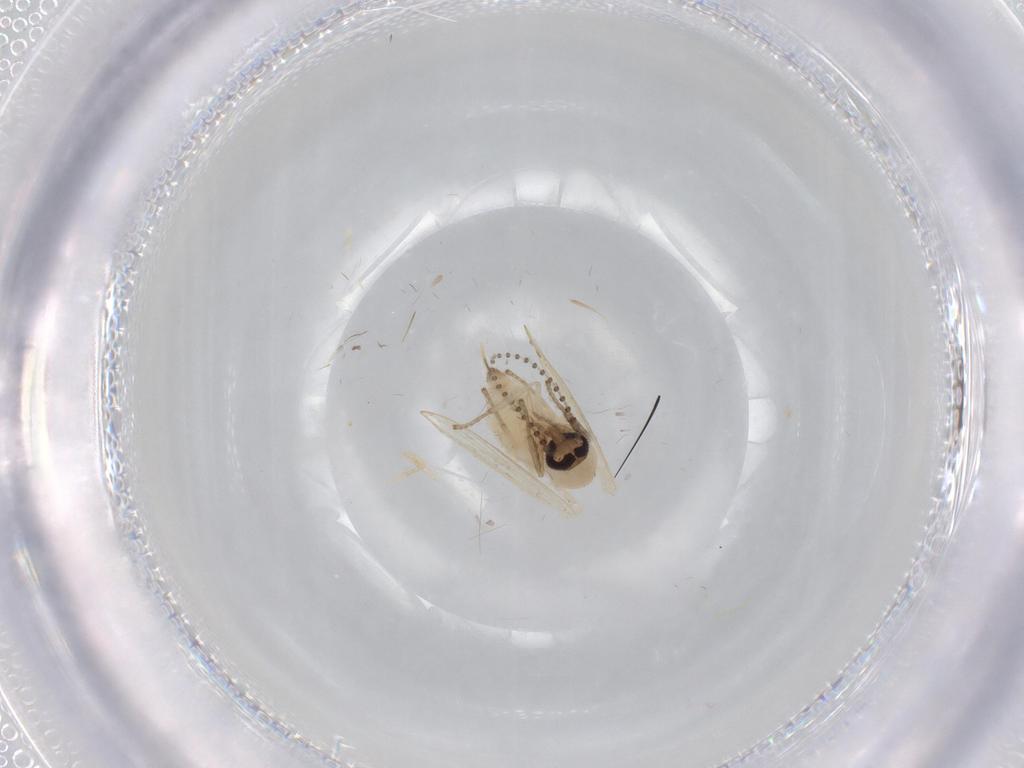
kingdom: Animalia
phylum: Arthropoda
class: Insecta
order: Diptera
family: Psychodidae
